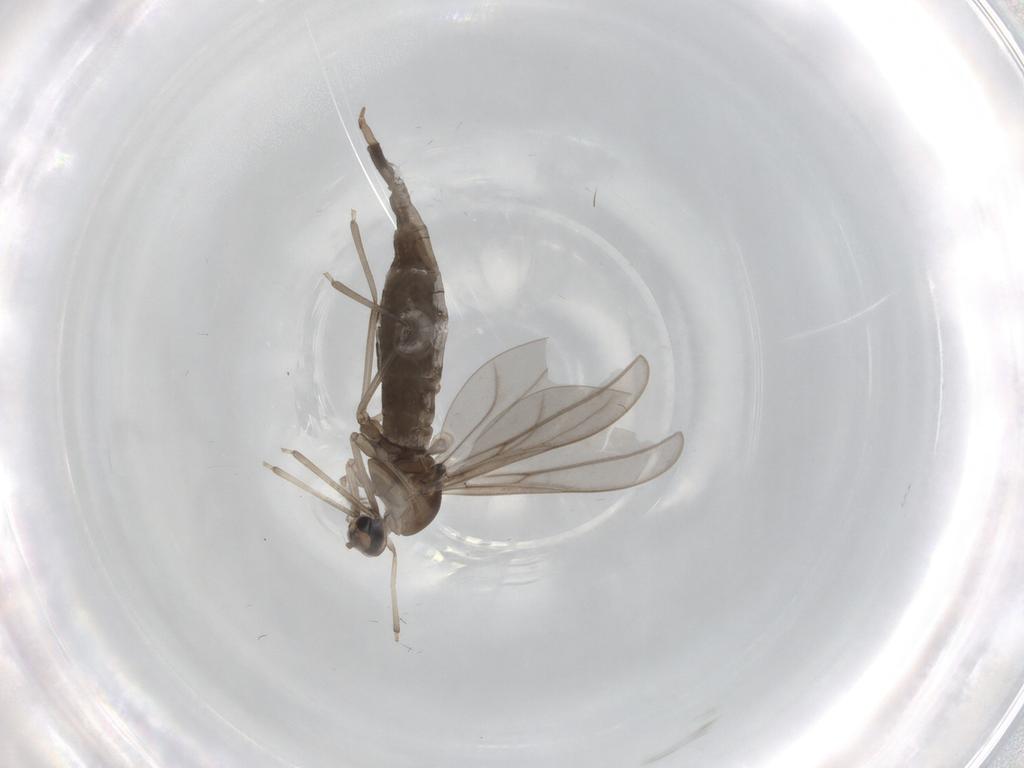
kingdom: Animalia
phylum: Arthropoda
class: Insecta
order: Diptera
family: Cecidomyiidae
